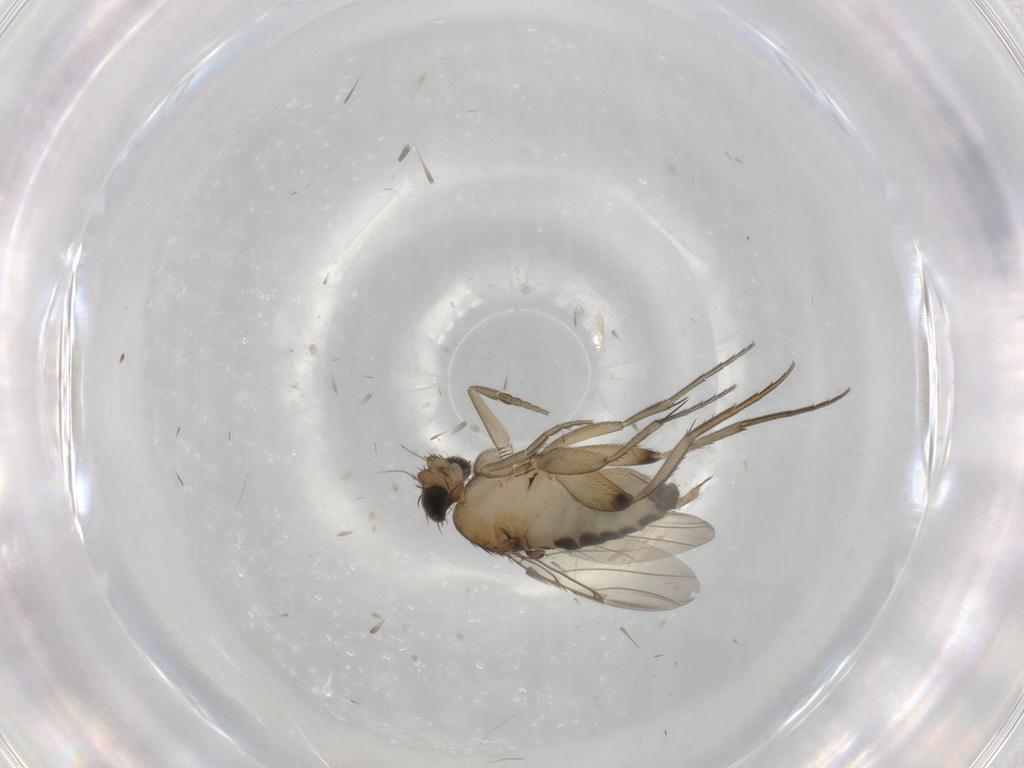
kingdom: Animalia
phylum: Arthropoda
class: Insecta
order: Diptera
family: Phoridae
